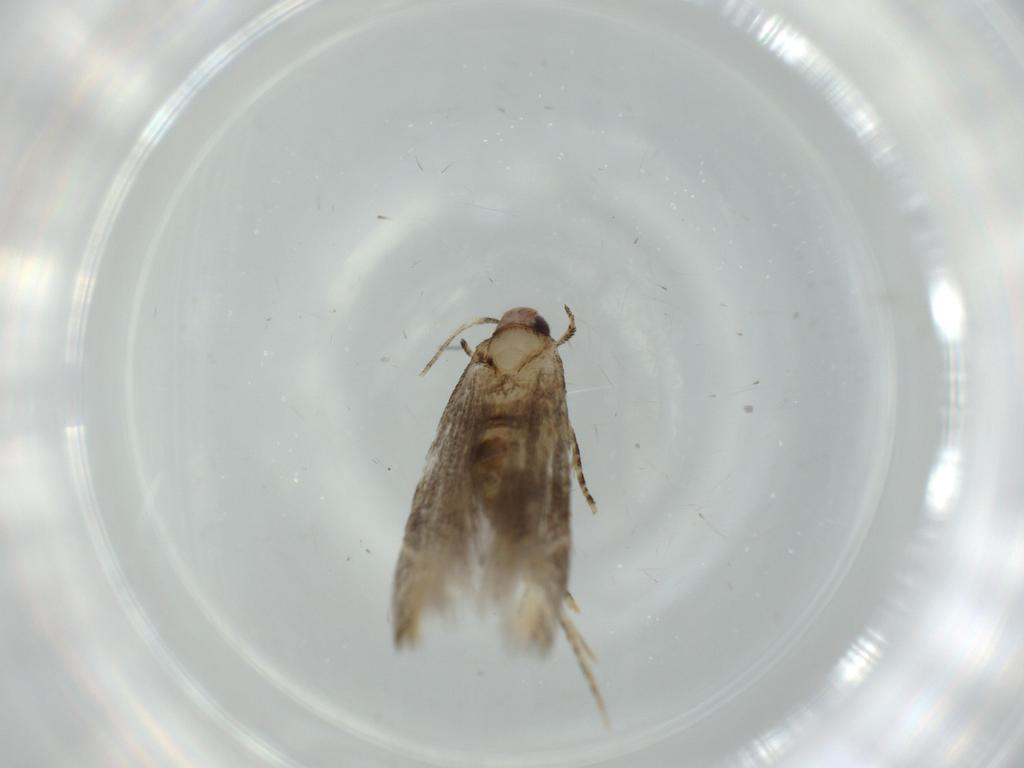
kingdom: Animalia
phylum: Arthropoda
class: Insecta
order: Lepidoptera
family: Stathmopodidae
